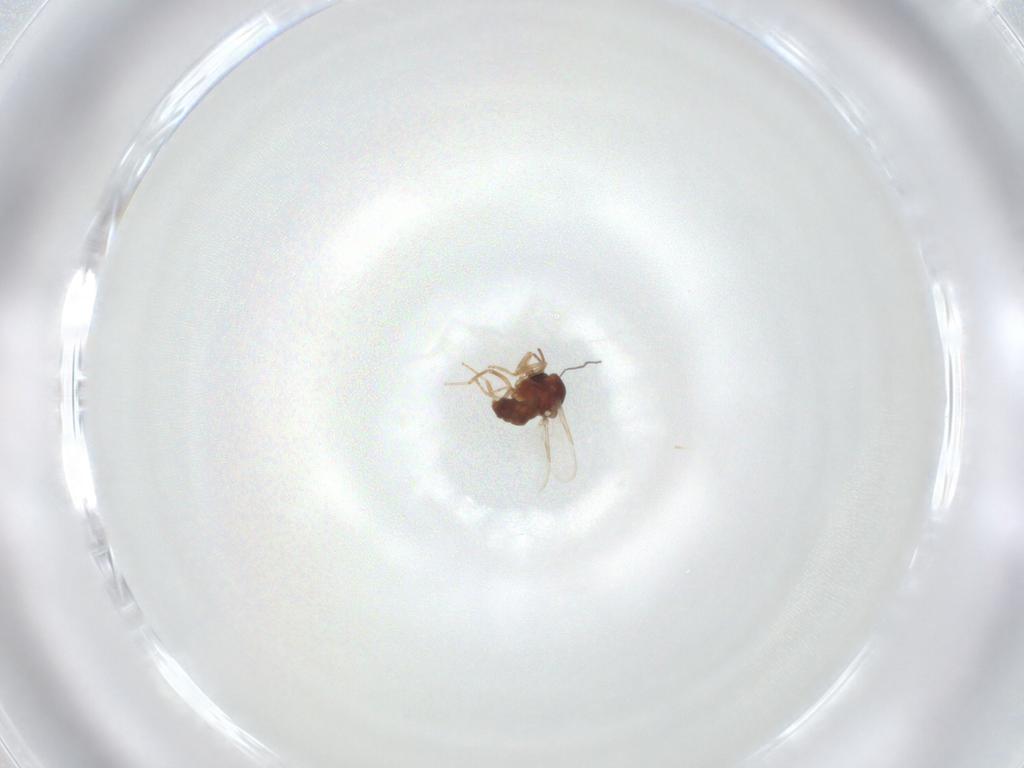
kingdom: Animalia
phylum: Arthropoda
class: Insecta
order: Diptera
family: Ceratopogonidae
